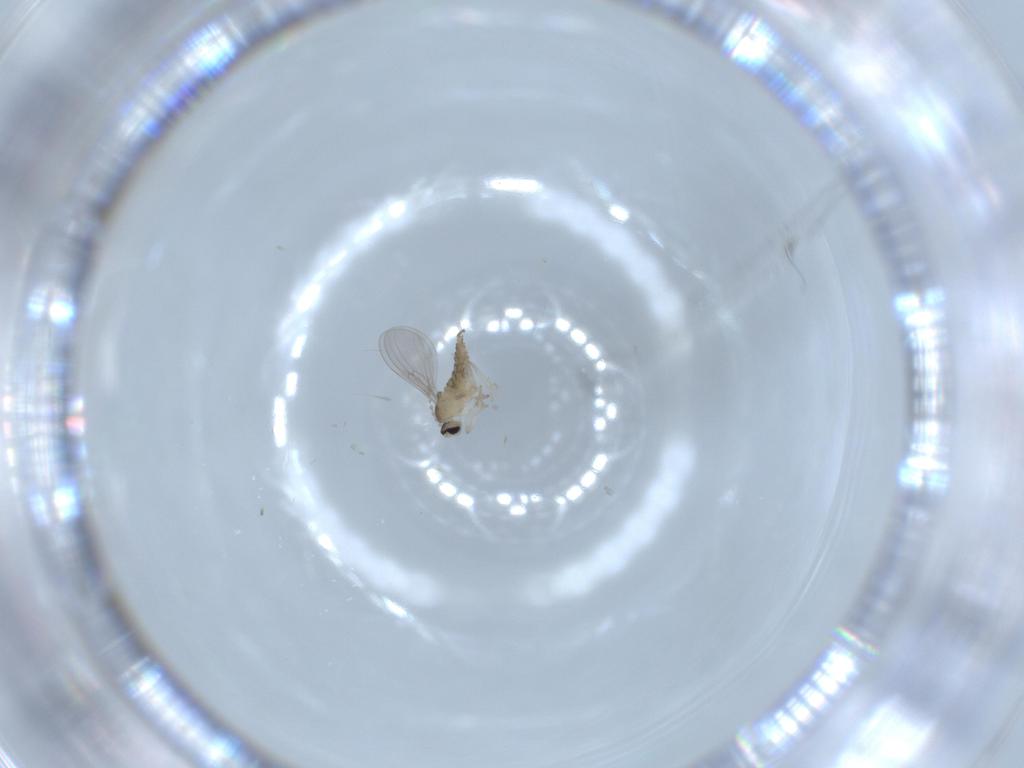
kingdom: Animalia
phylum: Arthropoda
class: Insecta
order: Diptera
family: Cecidomyiidae
